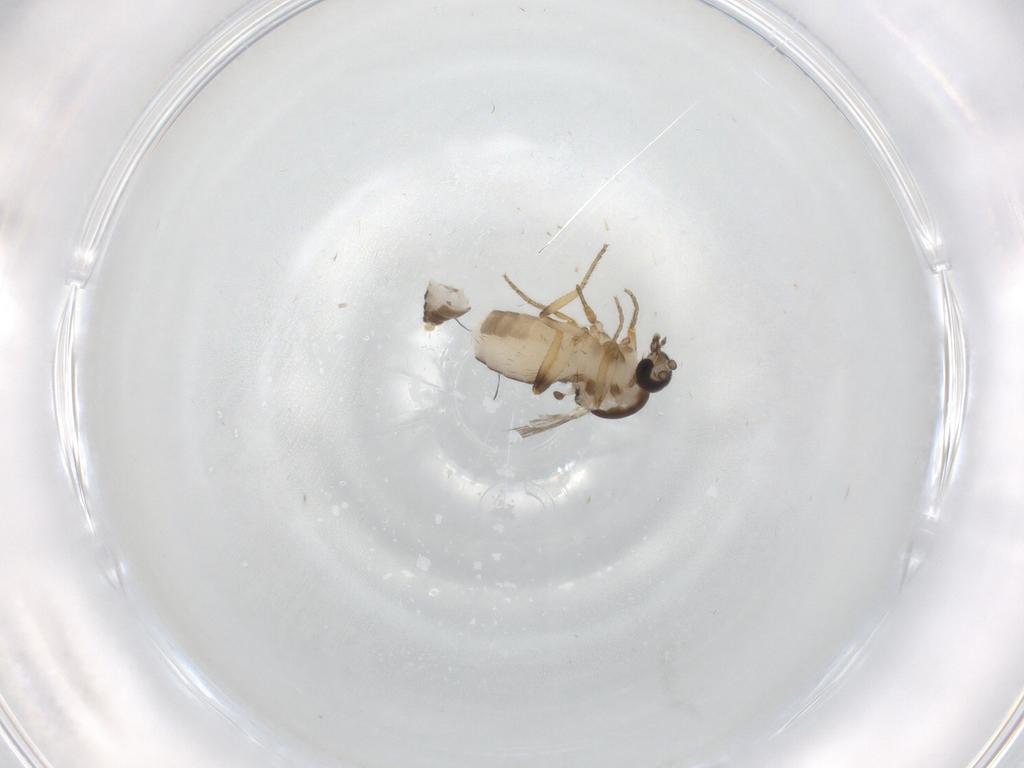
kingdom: Animalia
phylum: Arthropoda
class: Insecta
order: Diptera
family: Ceratopogonidae
